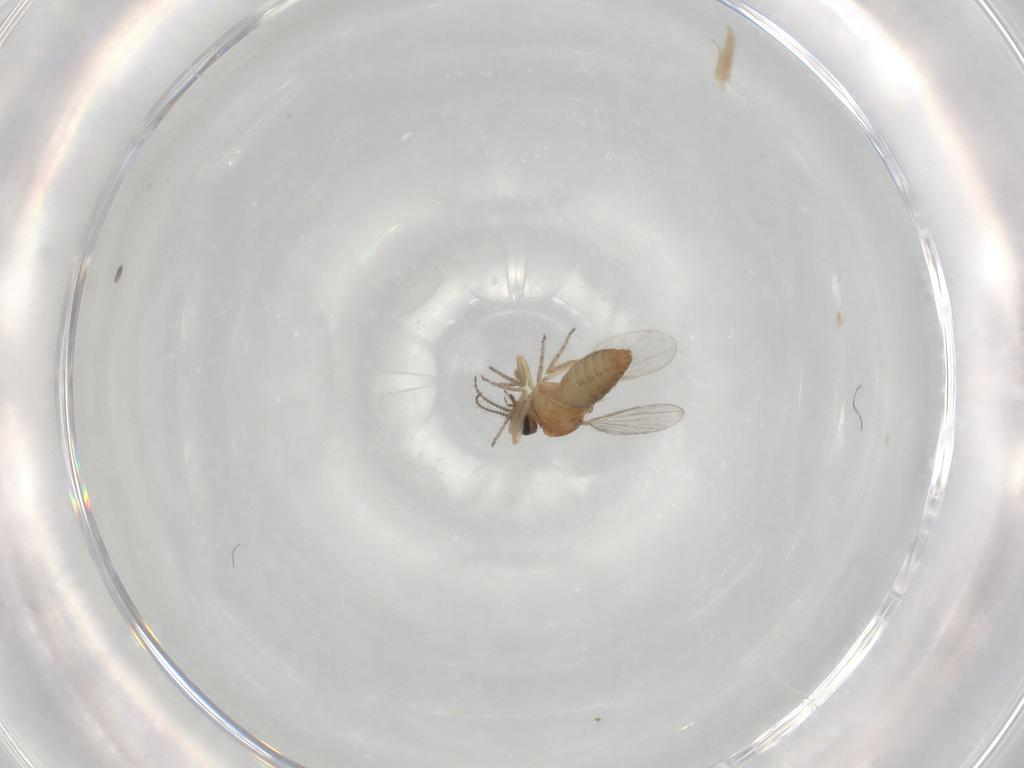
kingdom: Animalia
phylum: Arthropoda
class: Insecta
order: Diptera
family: Ceratopogonidae
